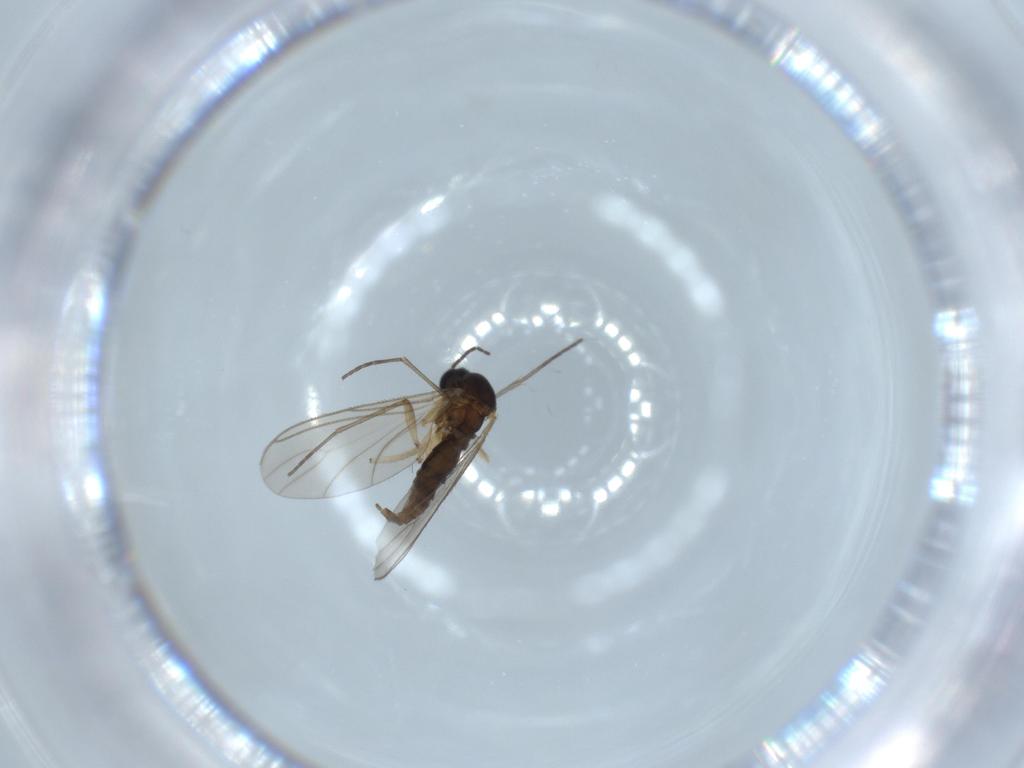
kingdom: Animalia
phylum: Arthropoda
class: Insecta
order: Diptera
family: Sciaridae
